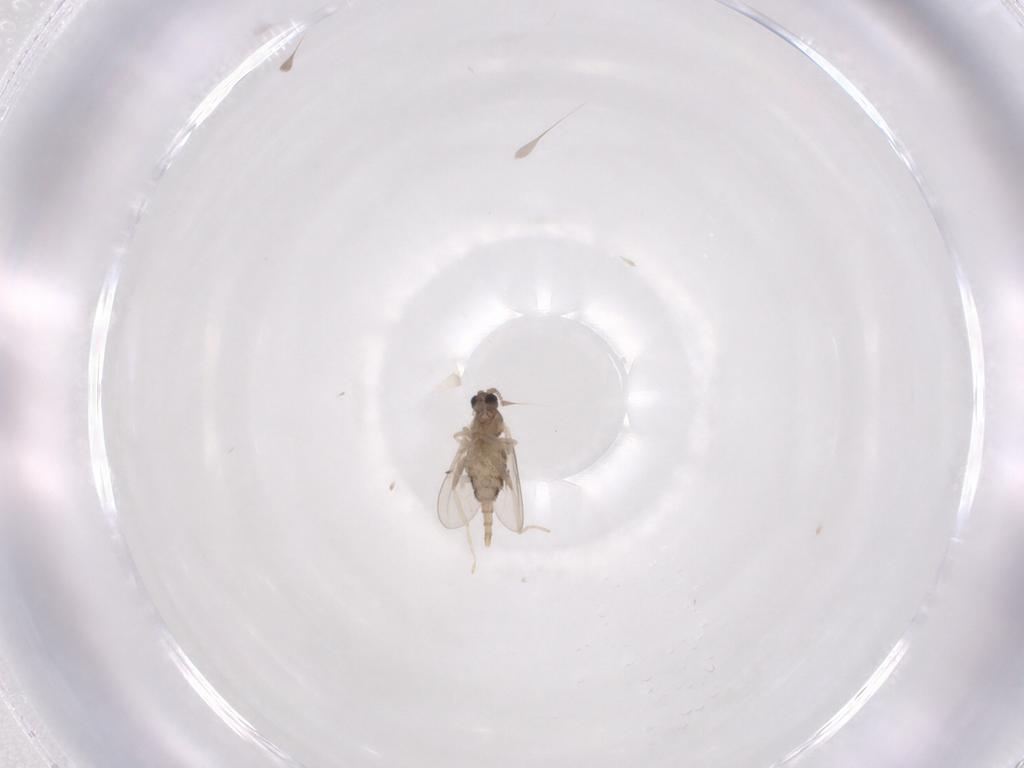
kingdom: Animalia
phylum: Arthropoda
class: Insecta
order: Diptera
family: Cecidomyiidae
